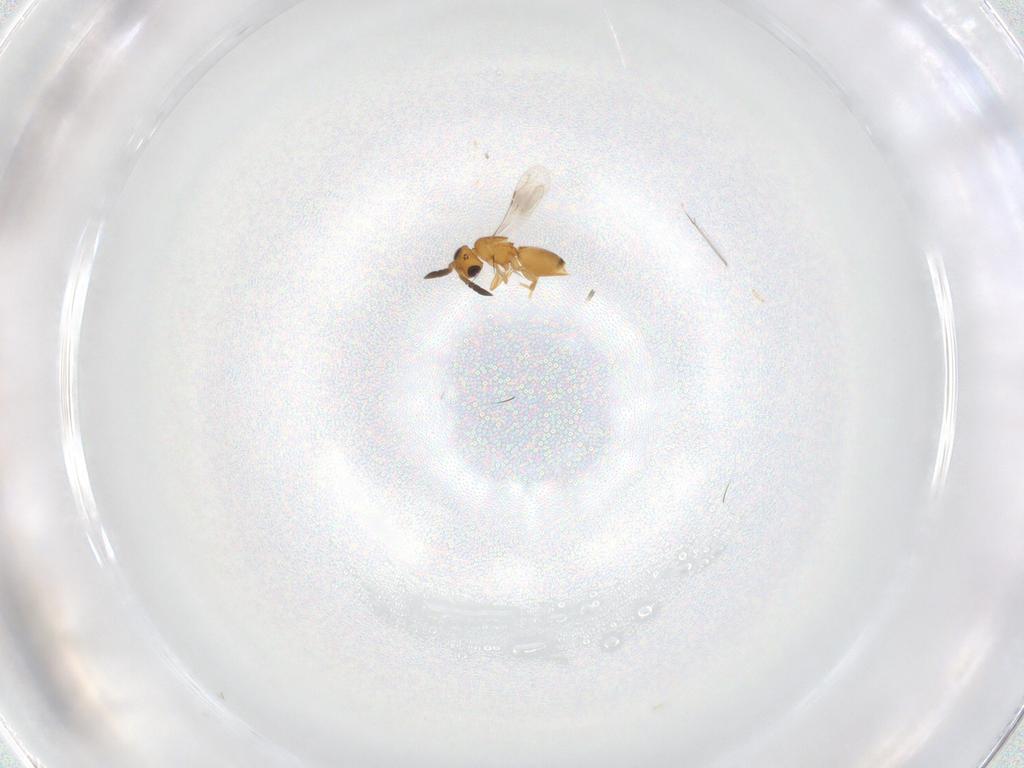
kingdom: Animalia
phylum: Arthropoda
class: Insecta
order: Hymenoptera
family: Ceraphronidae
